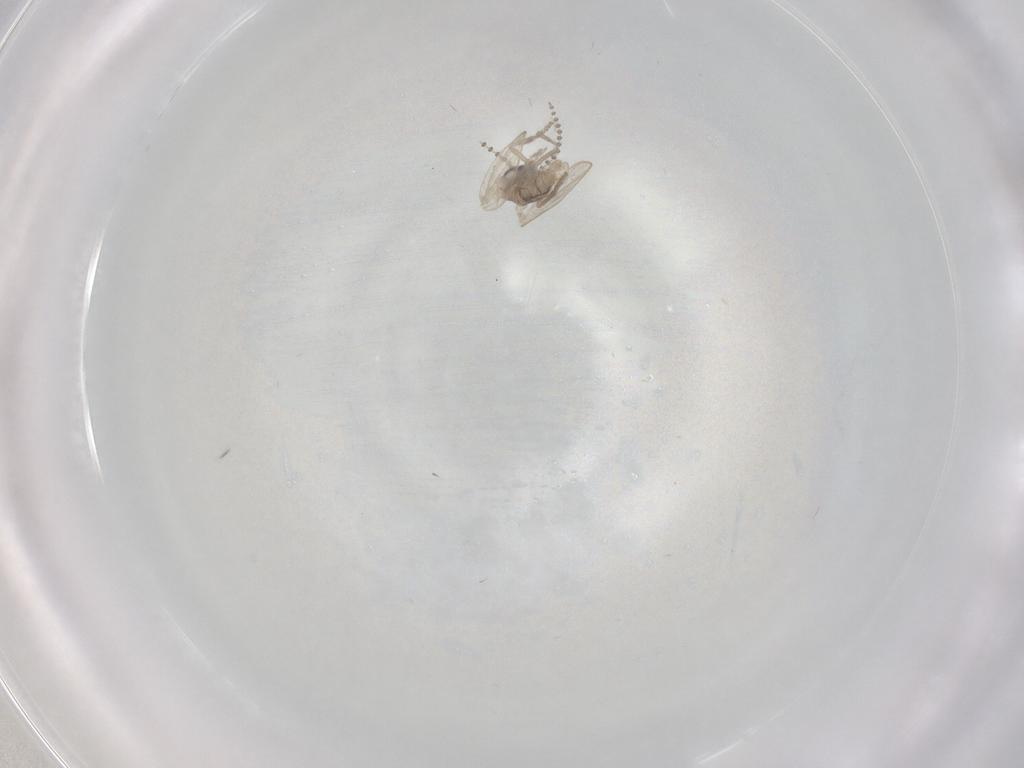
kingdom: Animalia
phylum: Arthropoda
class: Insecta
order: Diptera
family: Psychodidae
